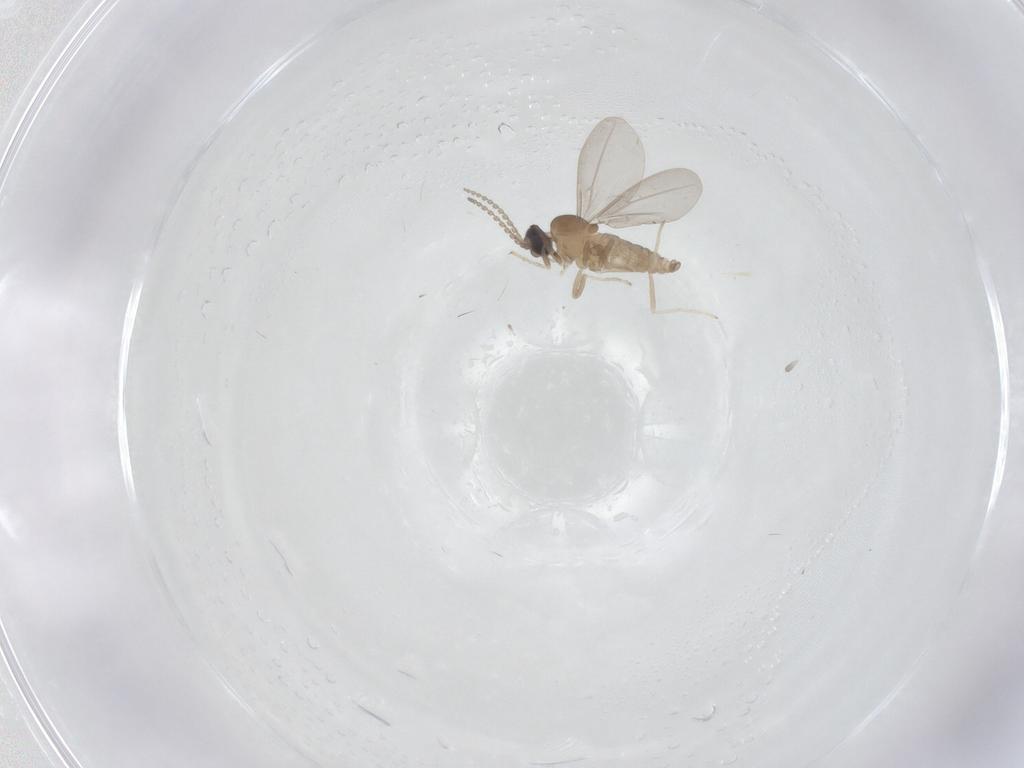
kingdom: Animalia
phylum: Arthropoda
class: Insecta
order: Diptera
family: Cecidomyiidae
